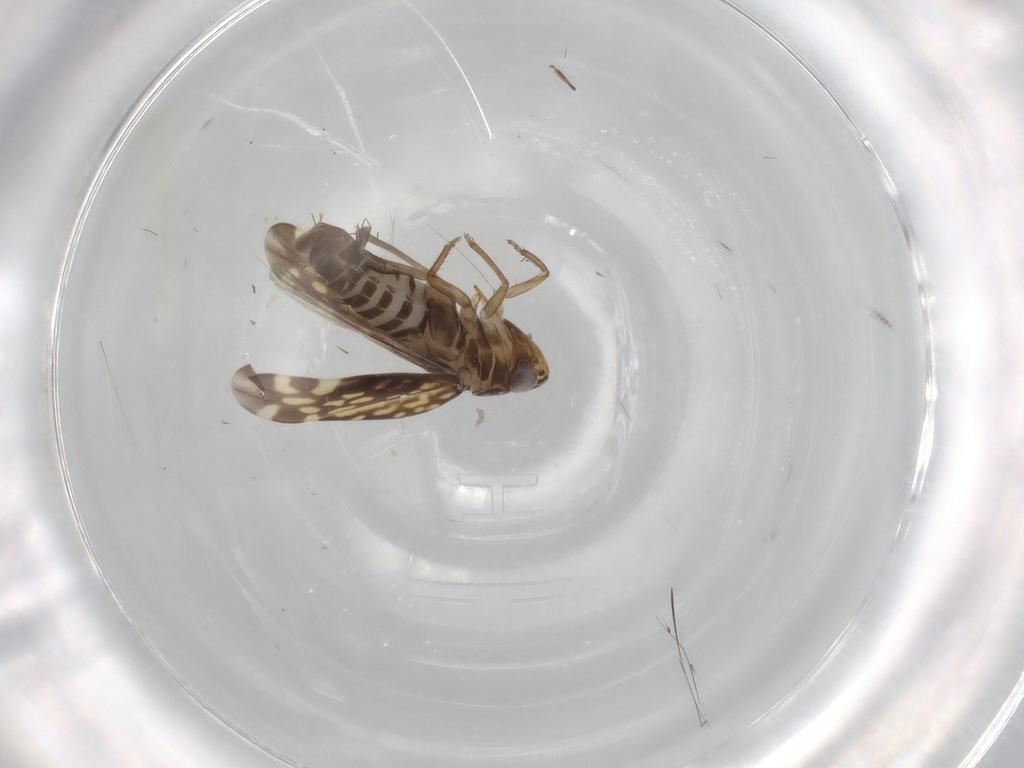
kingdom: Animalia
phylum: Arthropoda
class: Insecta
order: Hemiptera
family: Cicadellidae
